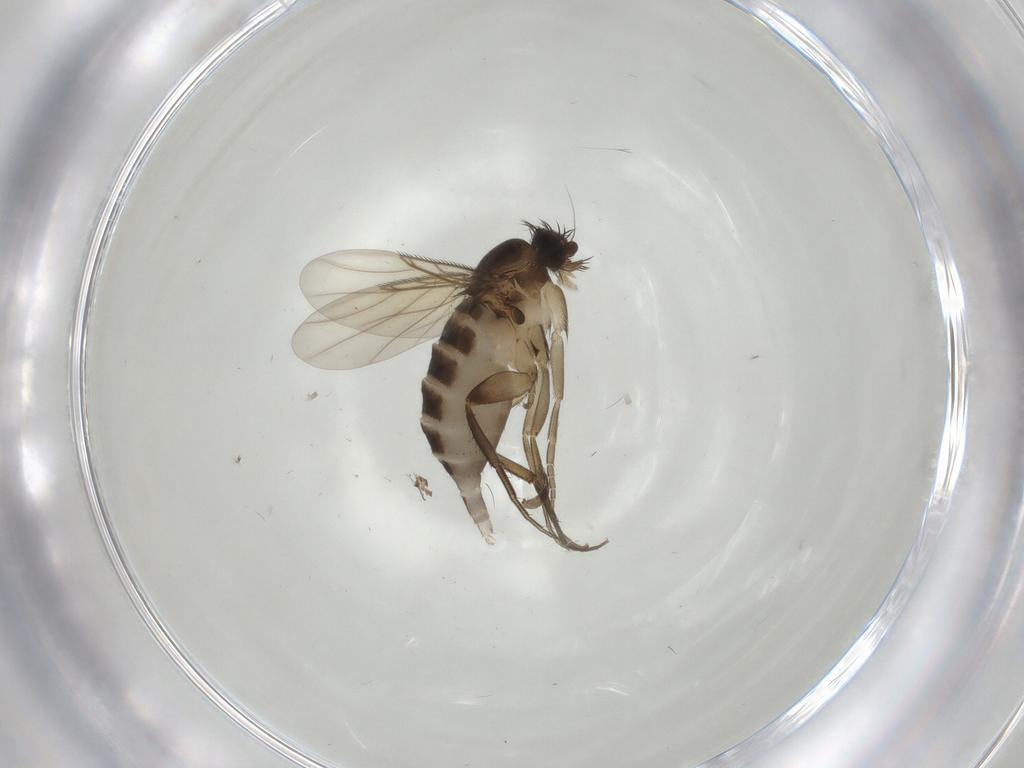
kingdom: Animalia
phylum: Arthropoda
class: Insecta
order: Diptera
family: Phoridae
